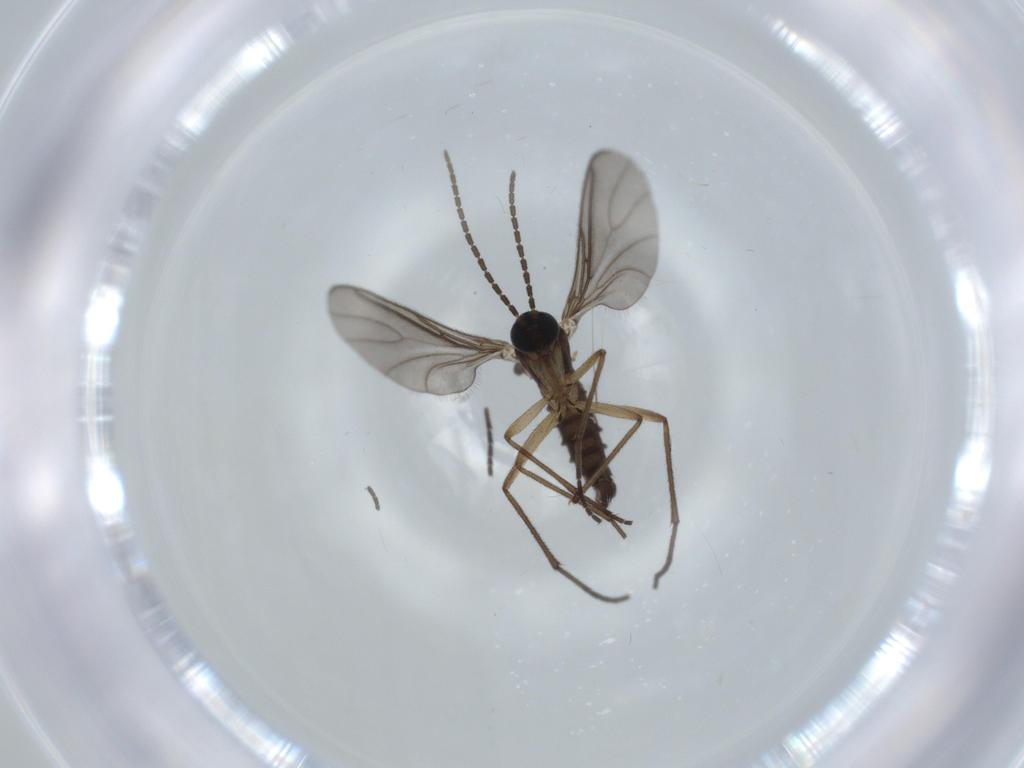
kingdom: Animalia
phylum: Arthropoda
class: Insecta
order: Diptera
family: Sciaridae
